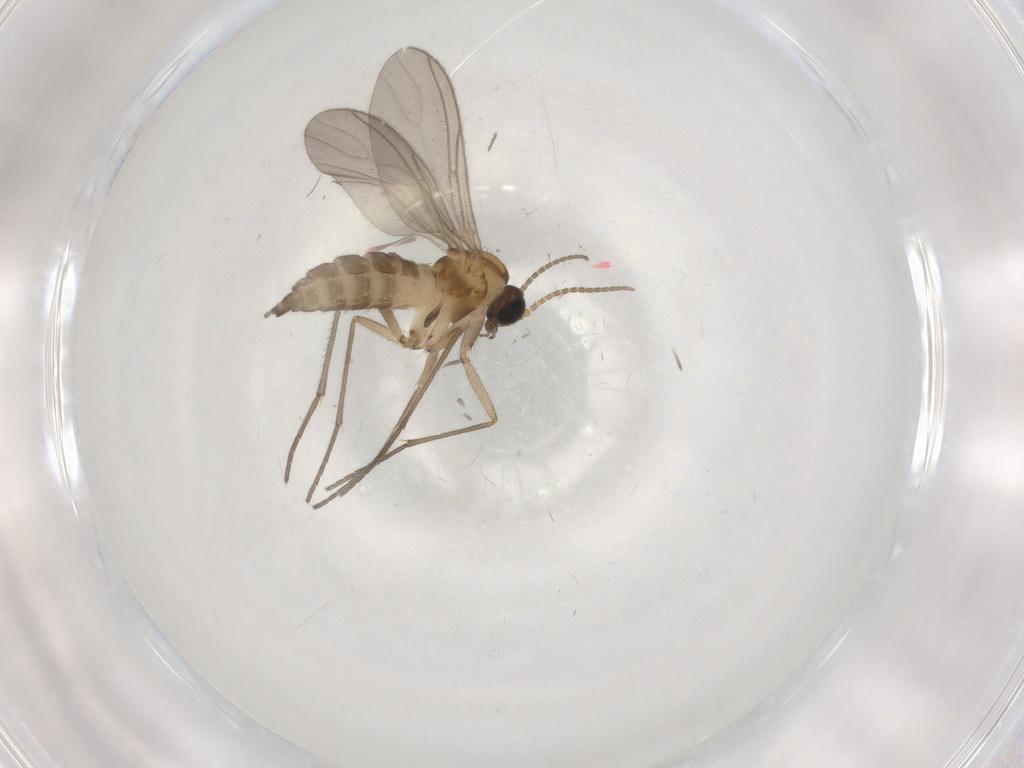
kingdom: Animalia
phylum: Arthropoda
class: Insecta
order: Diptera
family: Sciaridae
